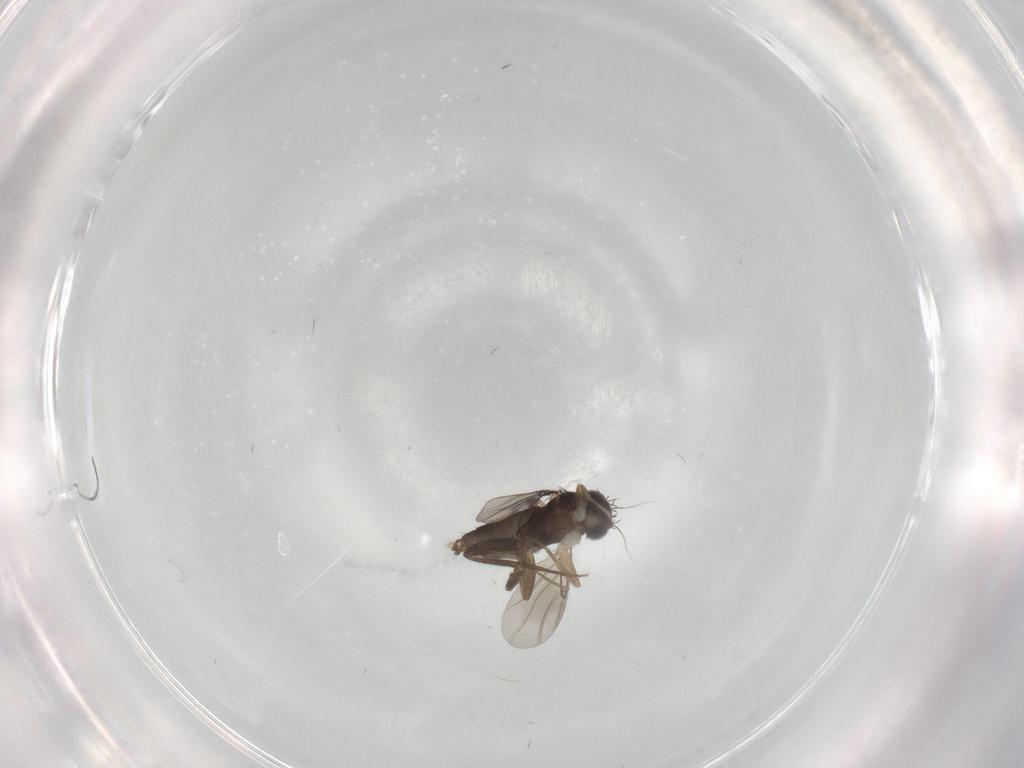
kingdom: Animalia
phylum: Arthropoda
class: Insecta
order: Diptera
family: Phoridae
